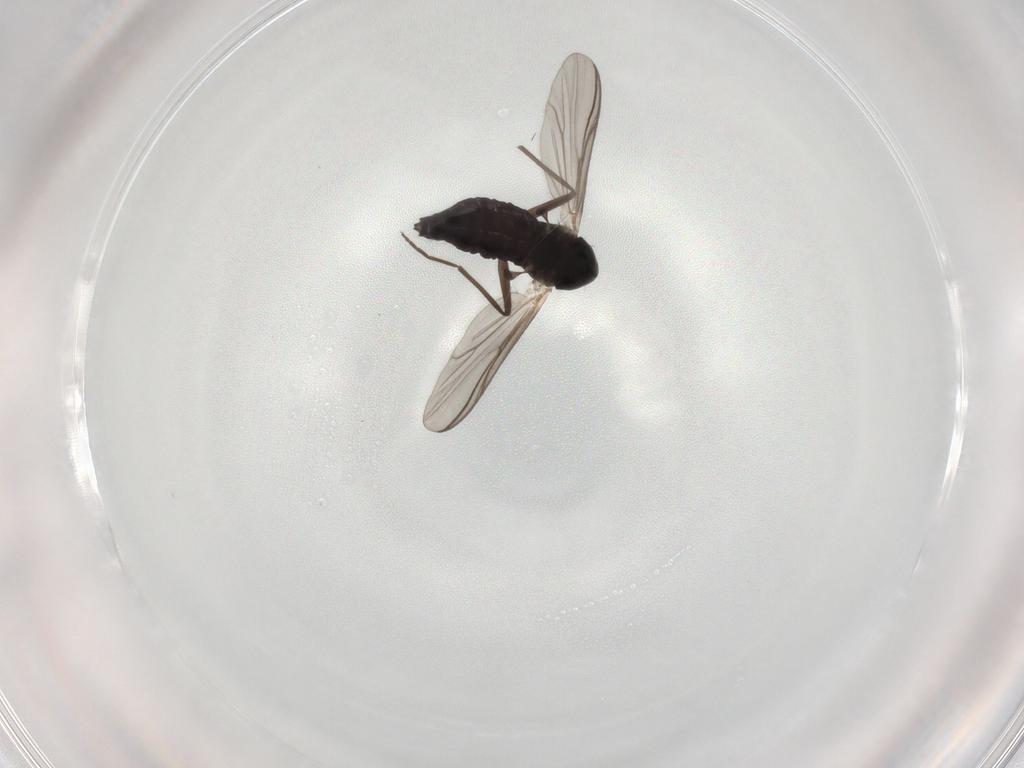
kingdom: Animalia
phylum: Arthropoda
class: Insecta
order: Diptera
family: Chironomidae
